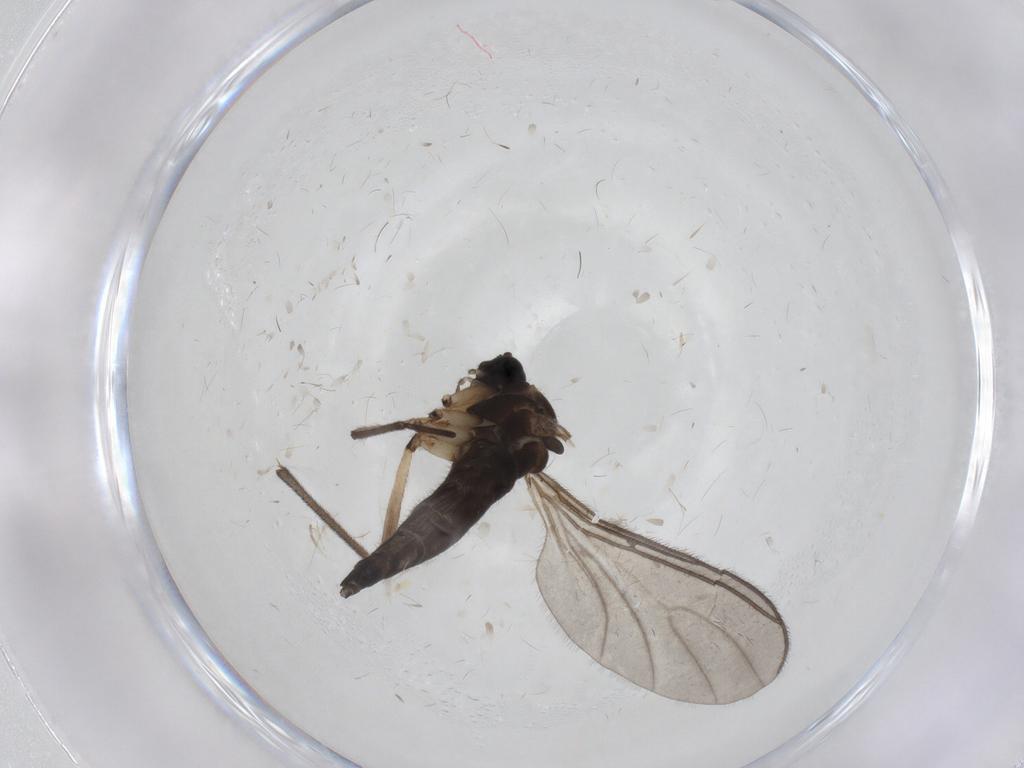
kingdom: Animalia
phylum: Arthropoda
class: Insecta
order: Diptera
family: Sciaridae
